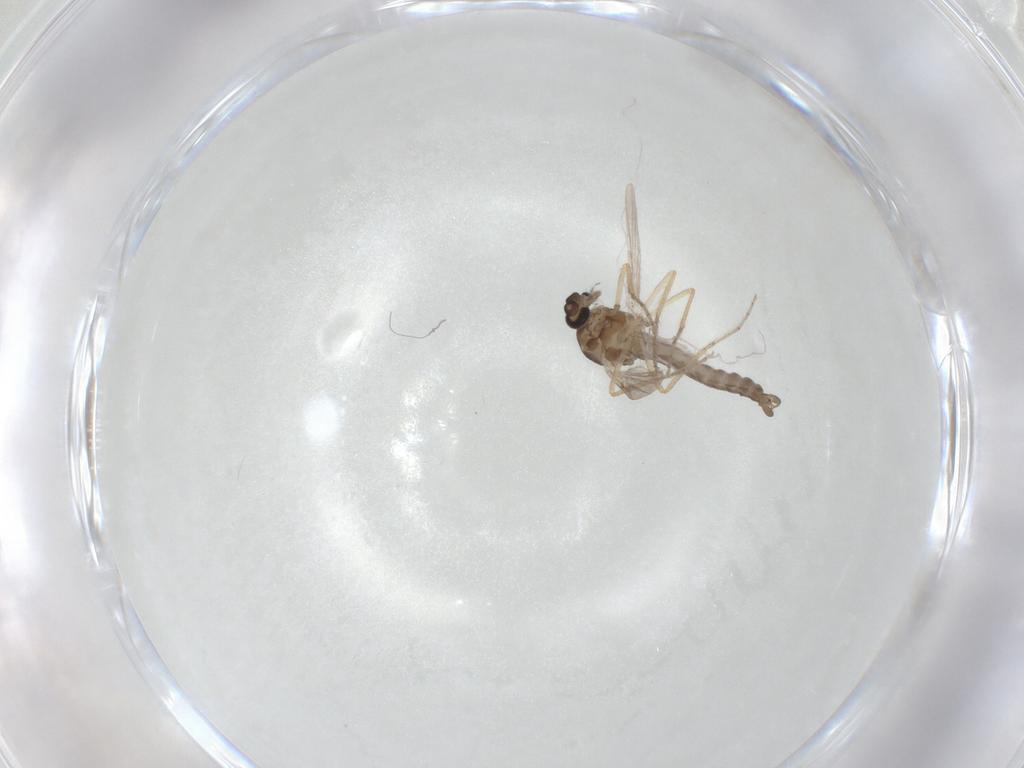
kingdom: Animalia
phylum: Arthropoda
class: Insecta
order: Diptera
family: Ceratopogonidae
